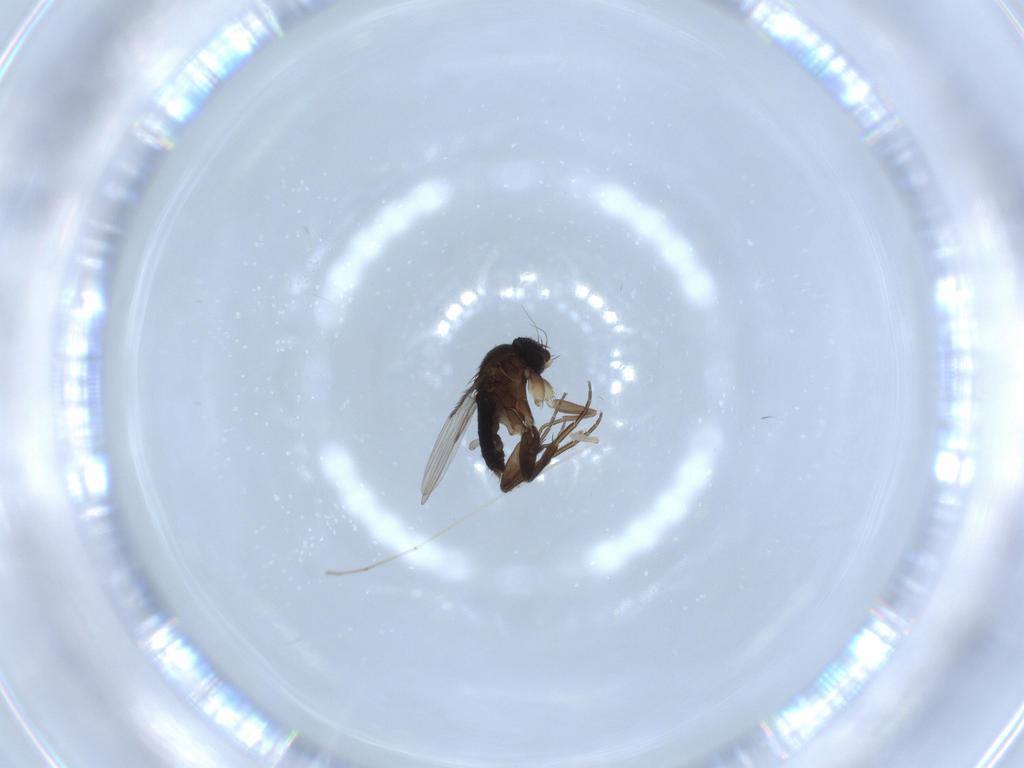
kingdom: Animalia
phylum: Arthropoda
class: Insecta
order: Diptera
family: Phoridae
